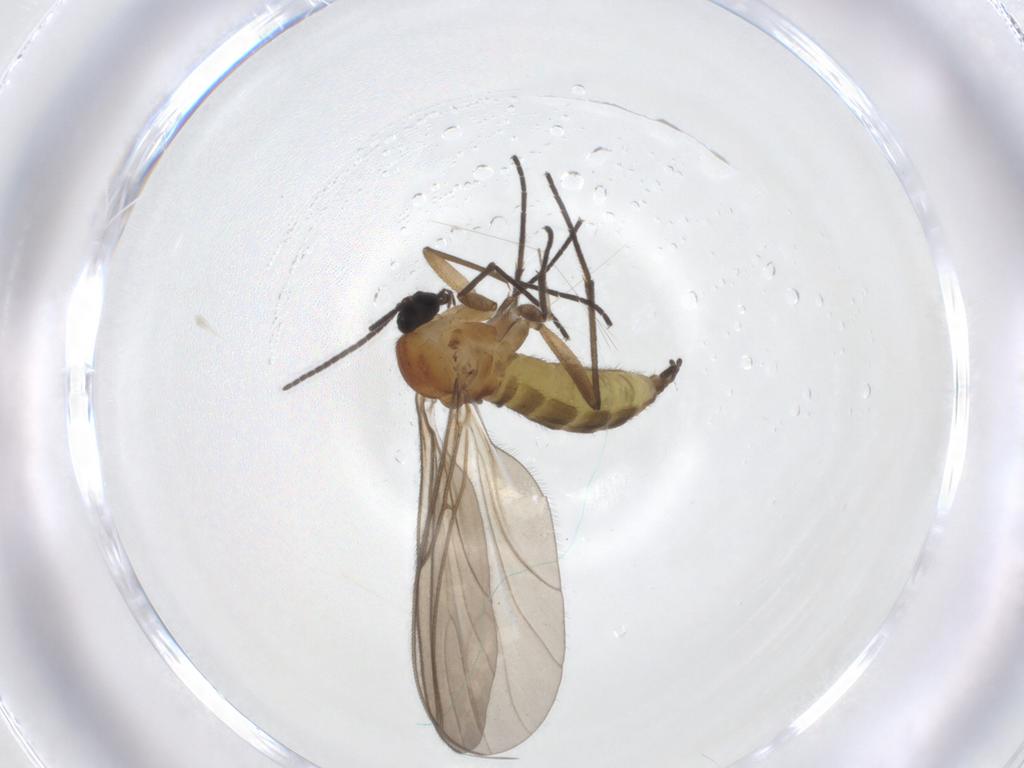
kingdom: Animalia
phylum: Arthropoda
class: Insecta
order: Diptera
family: Sciaridae
